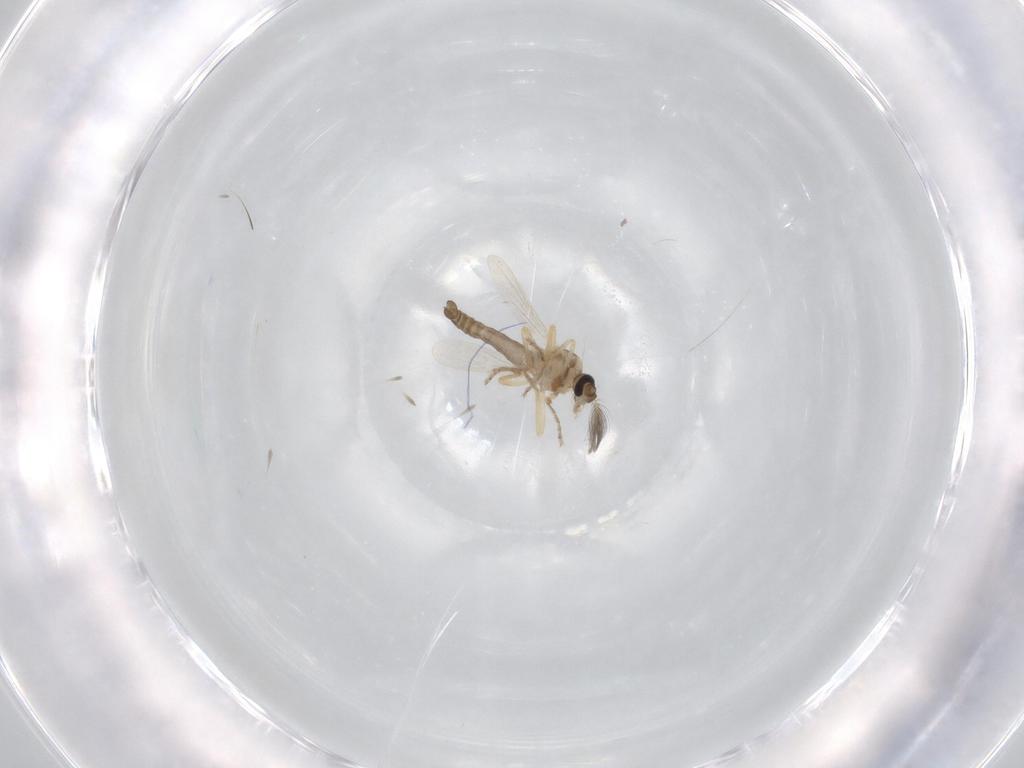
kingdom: Animalia
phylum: Arthropoda
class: Insecta
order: Diptera
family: Ceratopogonidae
